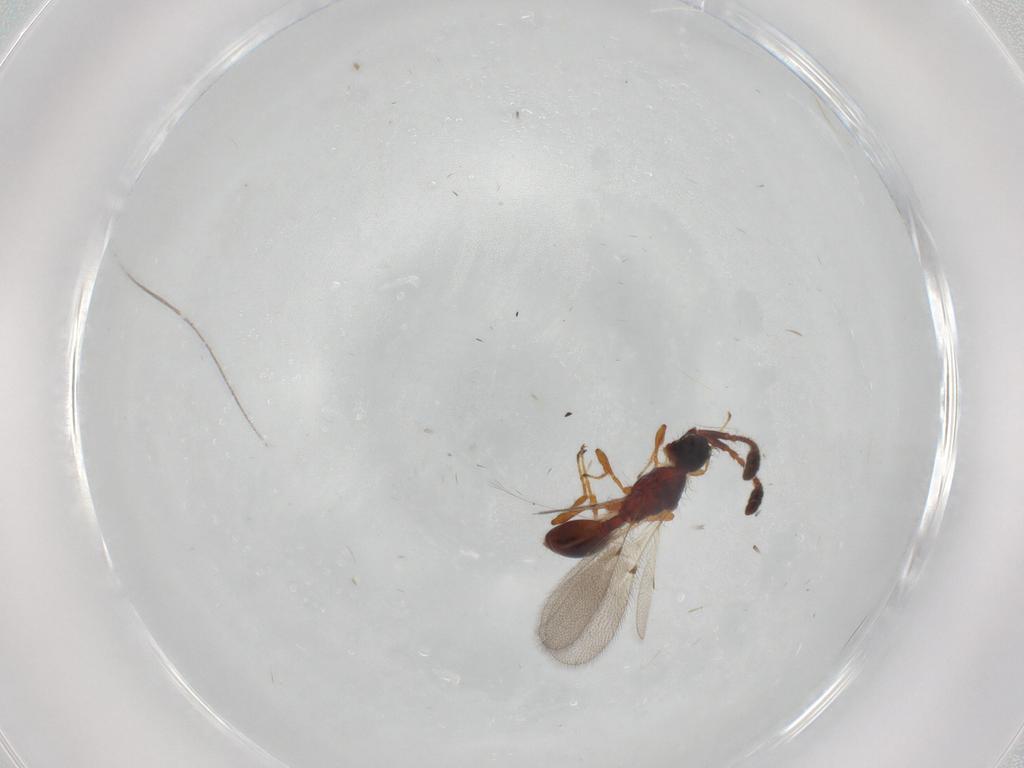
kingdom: Animalia
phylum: Arthropoda
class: Insecta
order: Hymenoptera
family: Diapriidae
